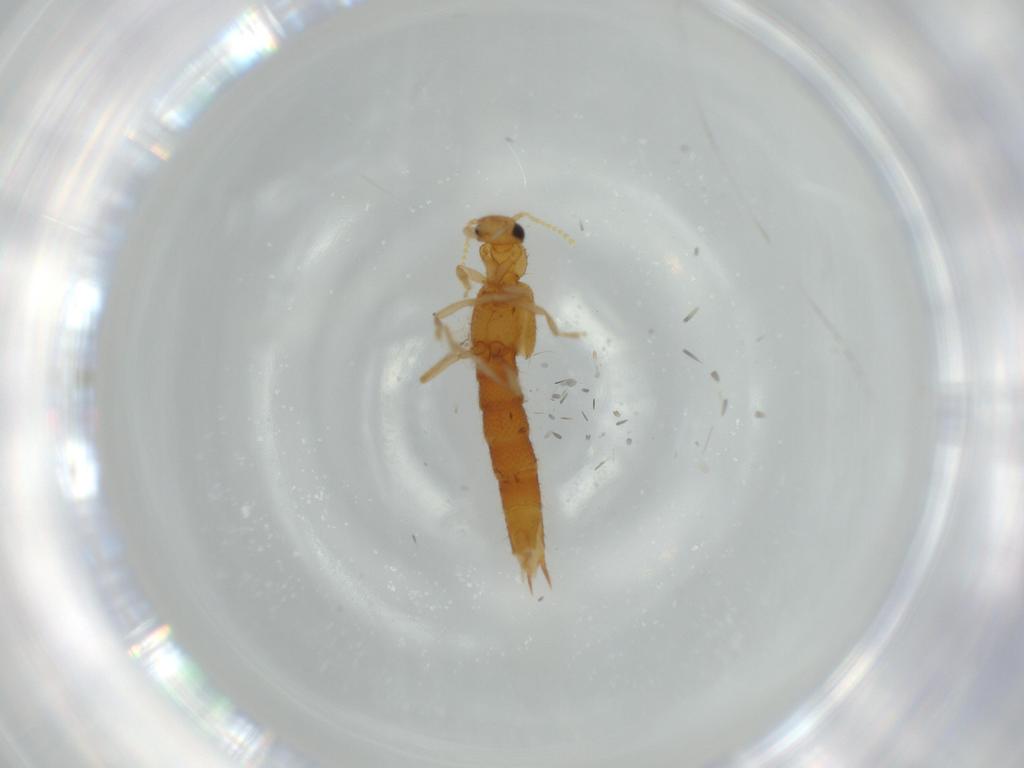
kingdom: Animalia
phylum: Arthropoda
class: Insecta
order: Coleoptera
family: Staphylinidae
